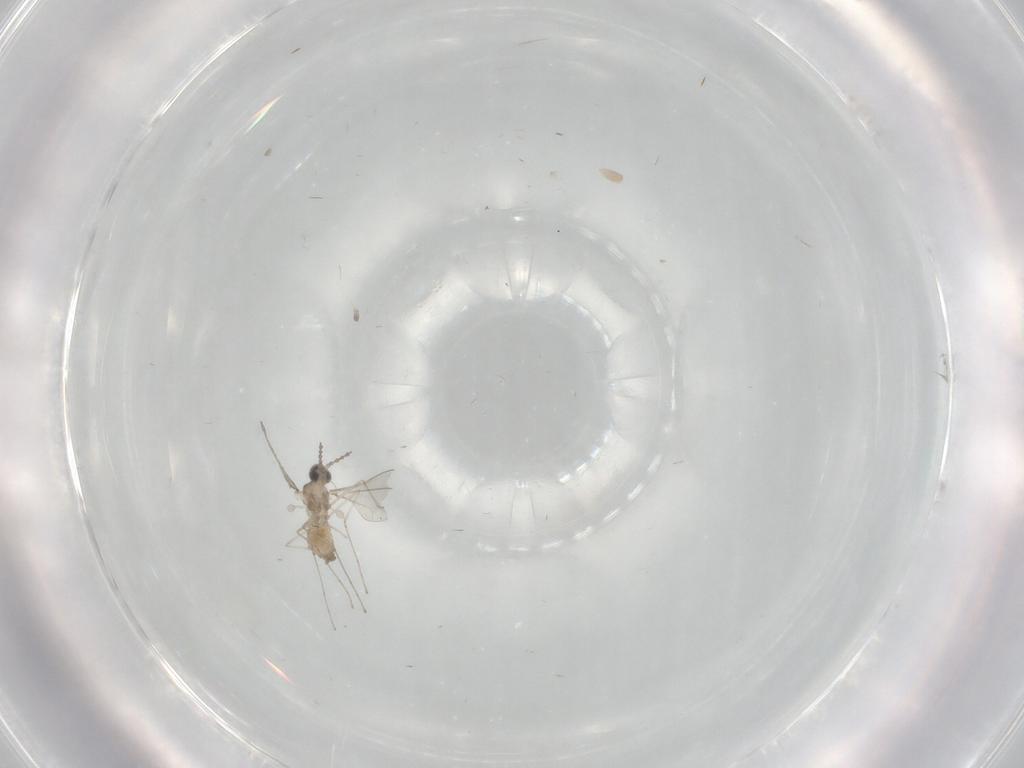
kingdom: Animalia
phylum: Arthropoda
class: Insecta
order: Diptera
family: Cecidomyiidae
